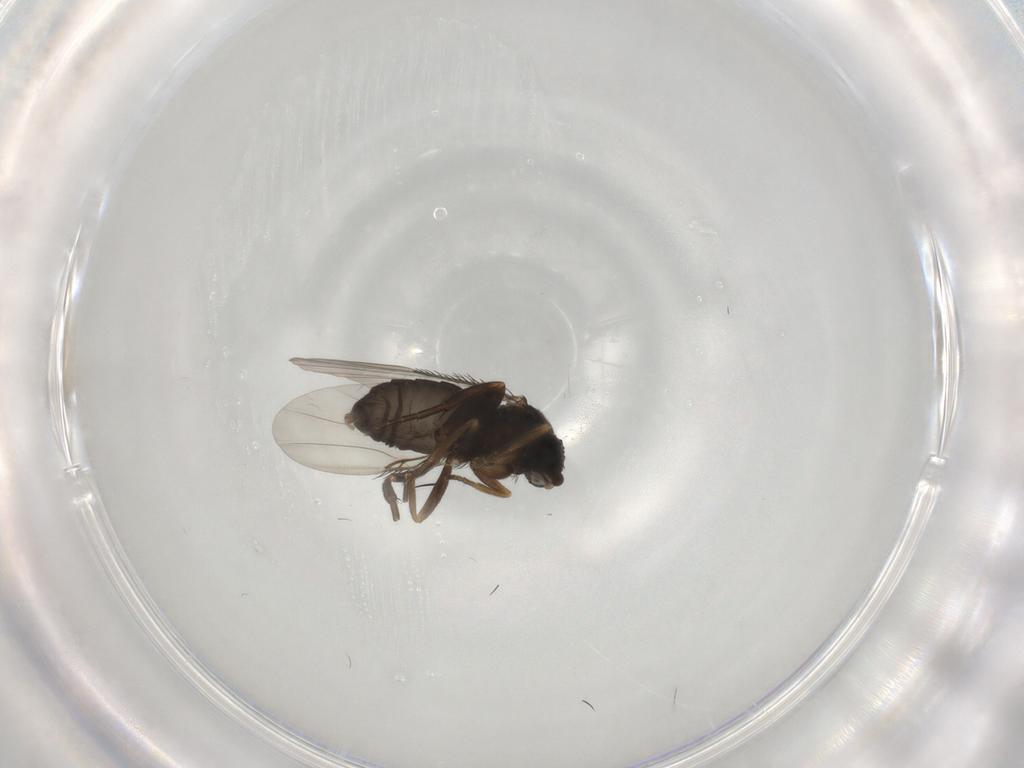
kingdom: Animalia
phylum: Arthropoda
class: Insecta
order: Diptera
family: Phoridae
